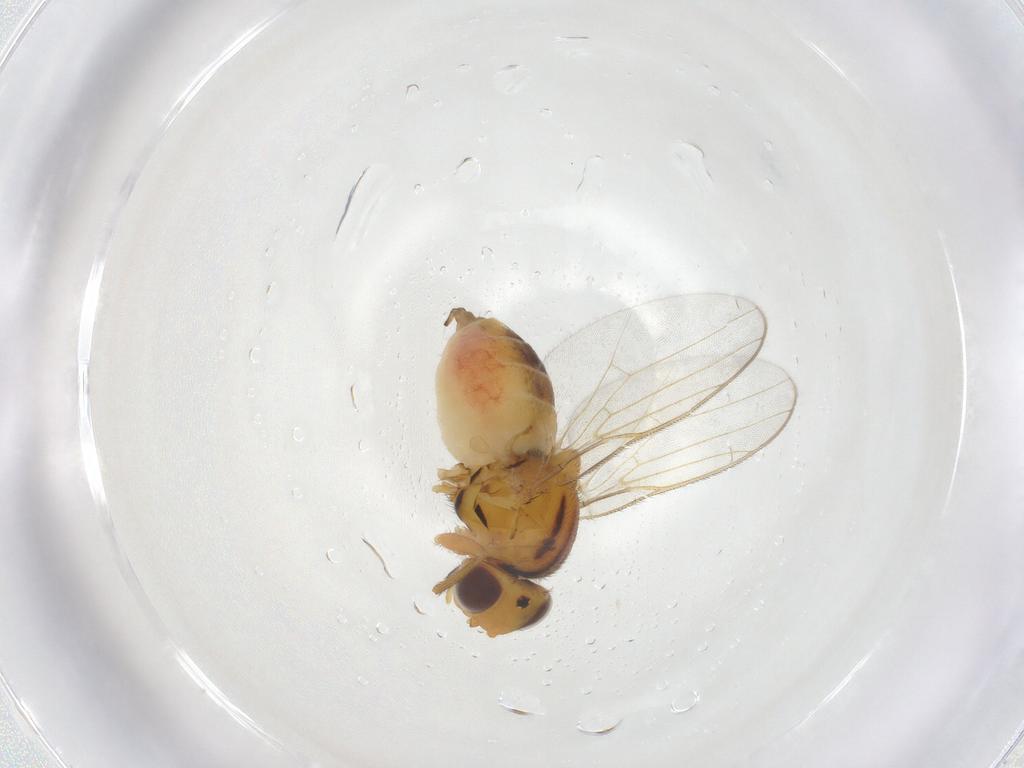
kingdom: Animalia
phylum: Arthropoda
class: Insecta
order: Diptera
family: Chloropidae
